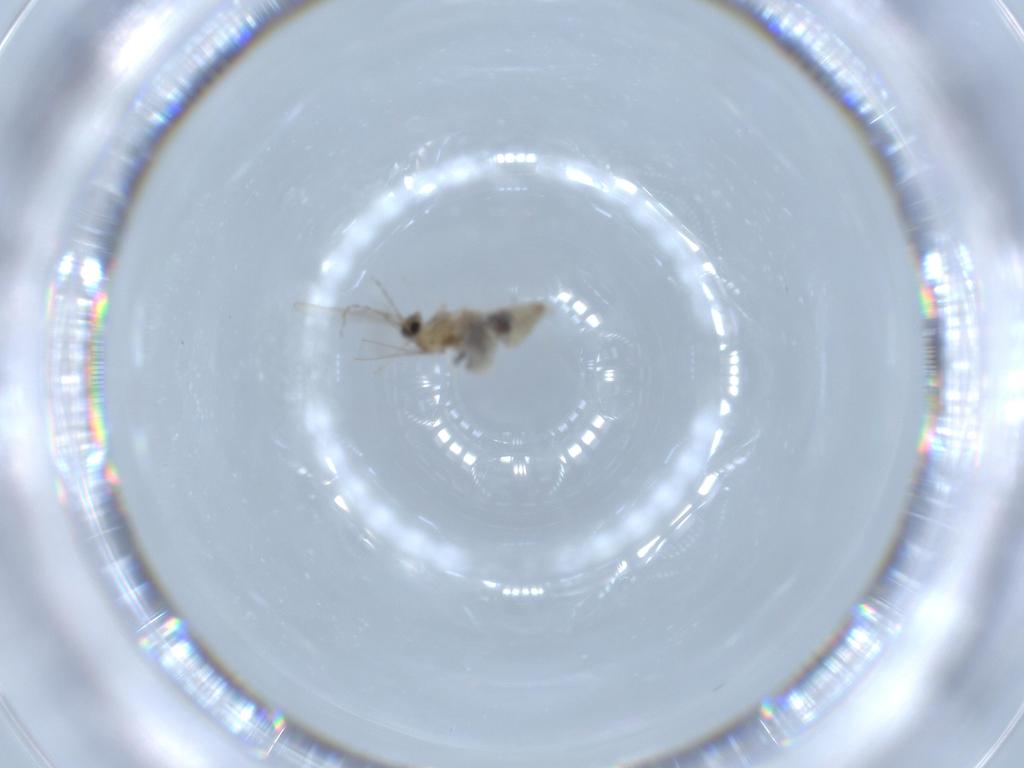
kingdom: Animalia
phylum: Arthropoda
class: Insecta
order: Diptera
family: Cecidomyiidae
